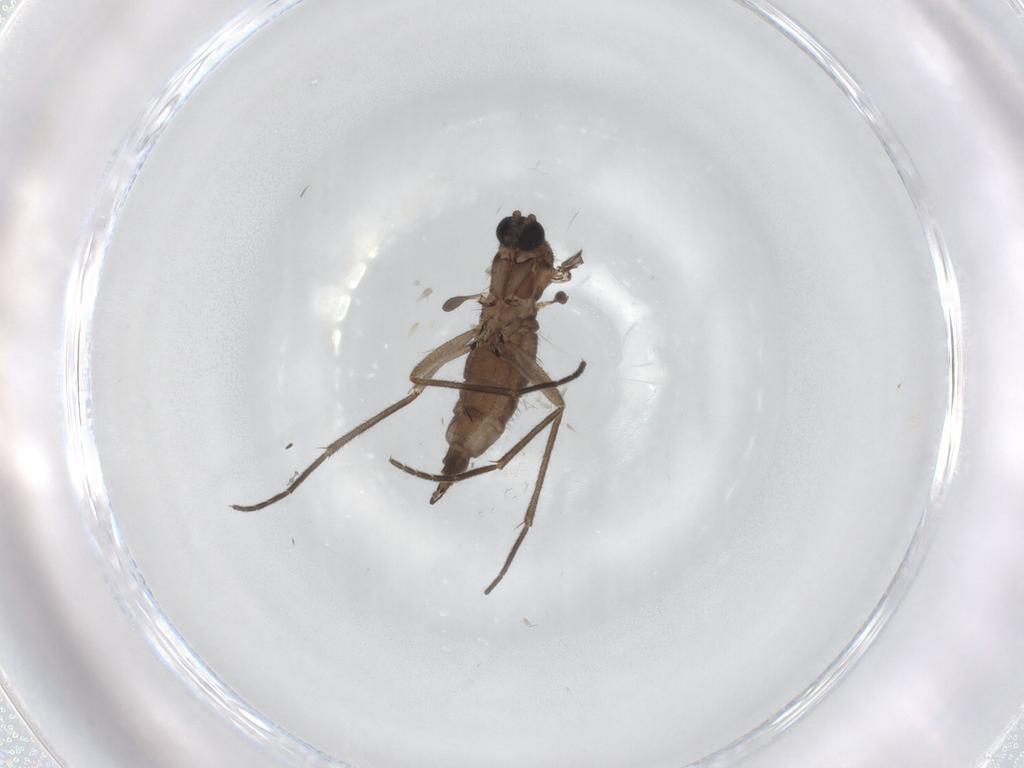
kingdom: Animalia
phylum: Arthropoda
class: Insecta
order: Diptera
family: Sciaridae
